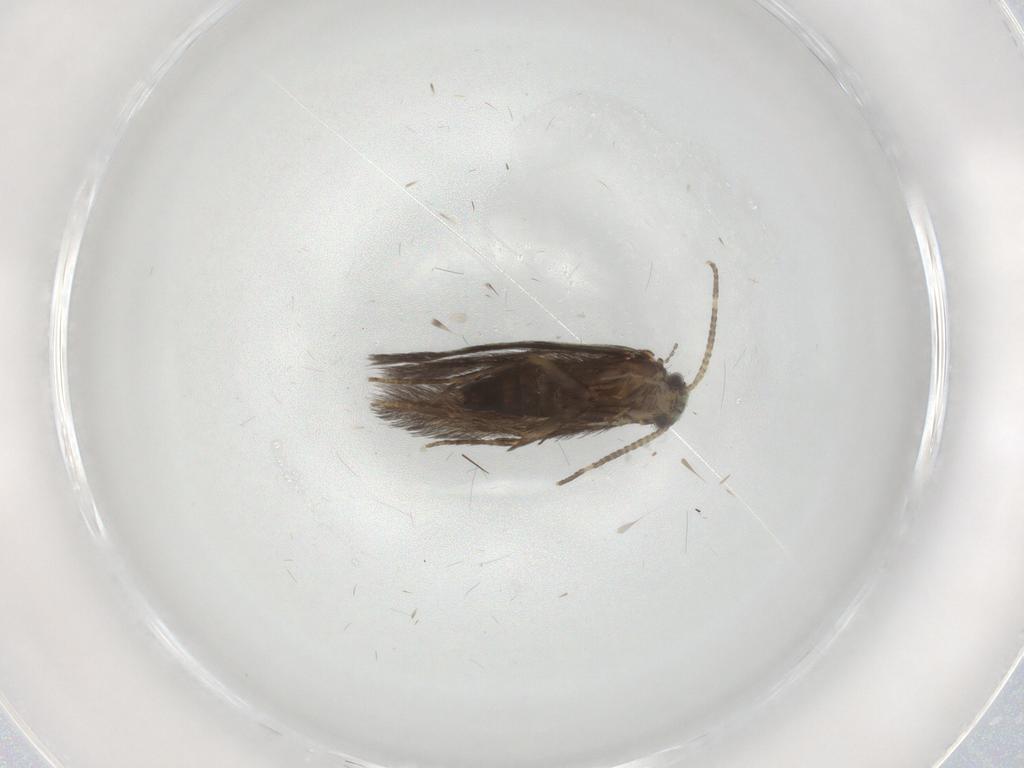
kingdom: Animalia
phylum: Arthropoda
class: Insecta
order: Trichoptera
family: Hydroptilidae
